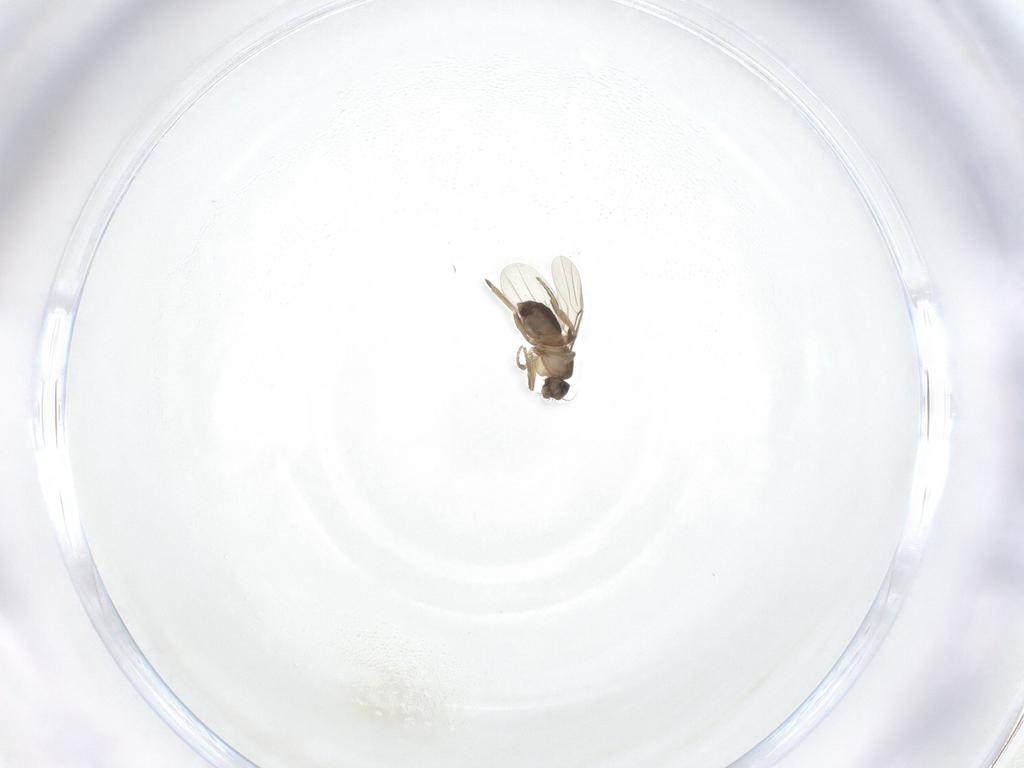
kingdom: Animalia
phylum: Arthropoda
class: Insecta
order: Diptera
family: Phoridae
